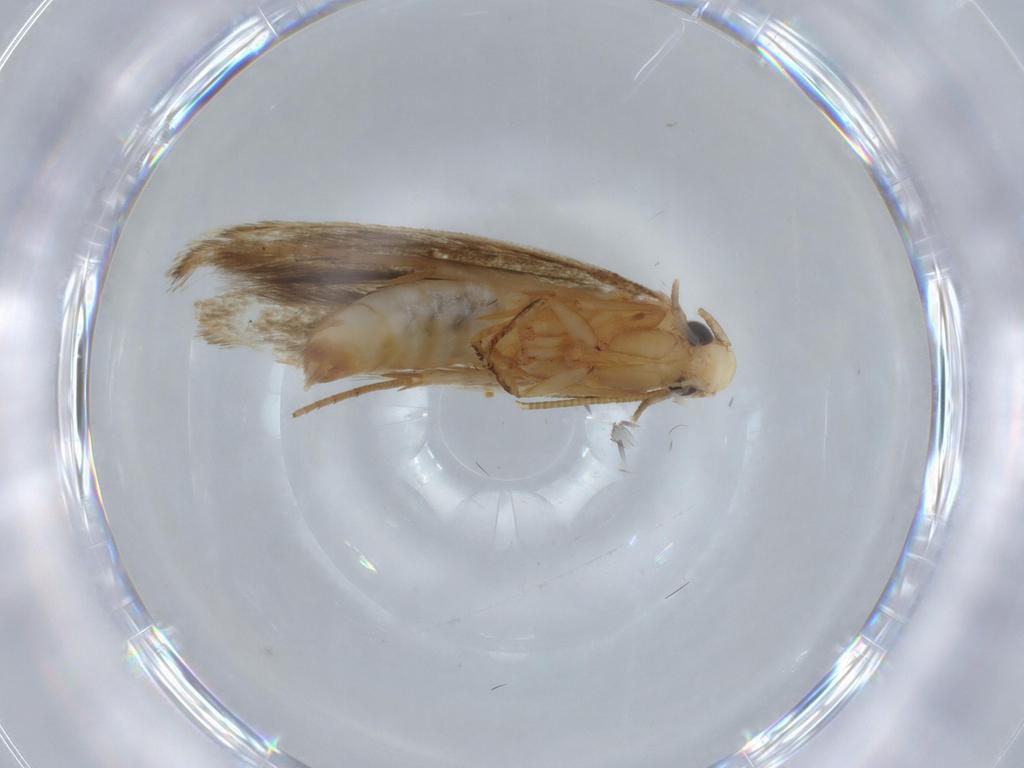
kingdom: Animalia
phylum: Arthropoda
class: Insecta
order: Lepidoptera
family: Tineidae
